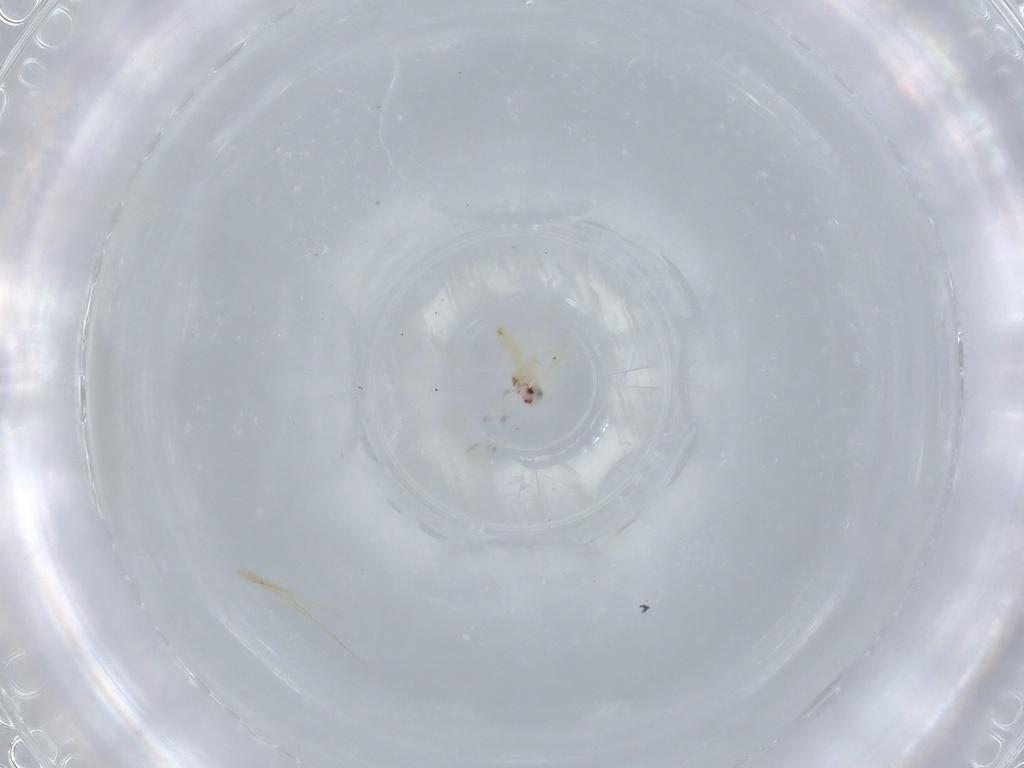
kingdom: Animalia
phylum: Arthropoda
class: Insecta
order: Hemiptera
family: Aleyrodidae
